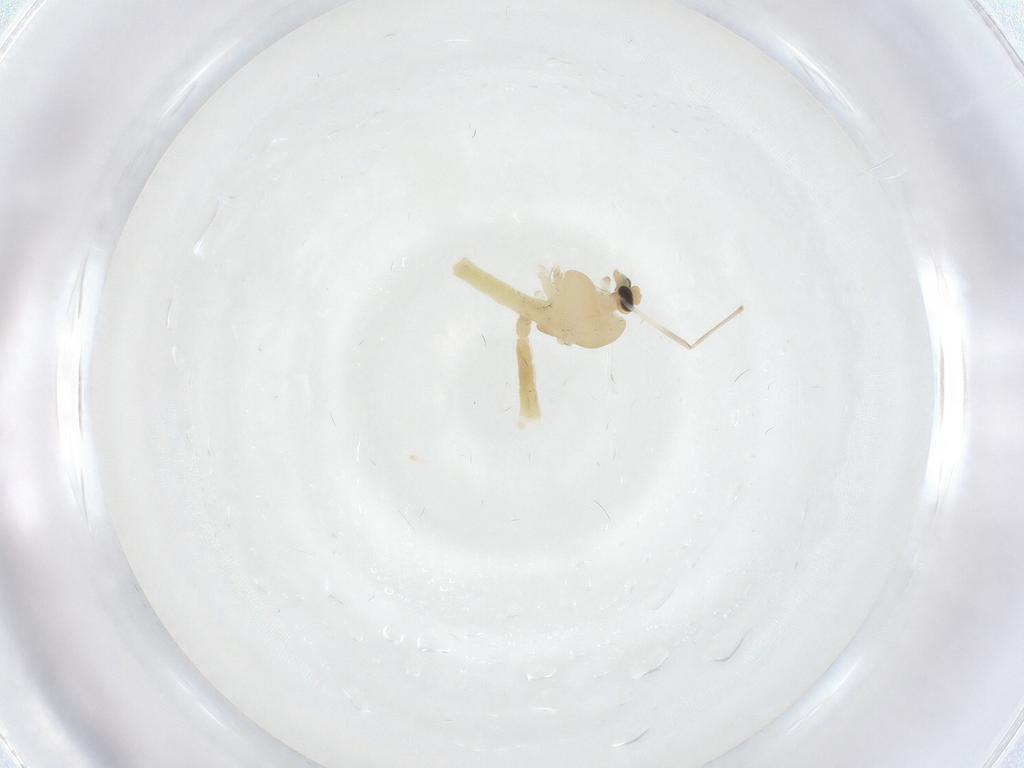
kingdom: Animalia
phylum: Arthropoda
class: Insecta
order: Diptera
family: Chironomidae
